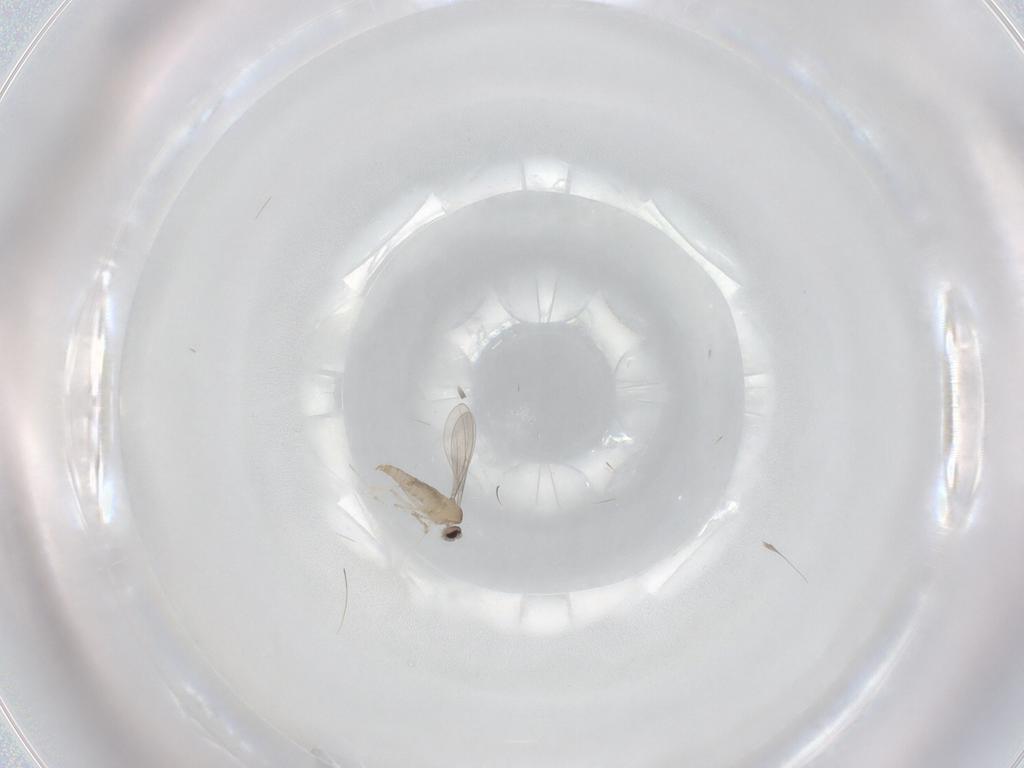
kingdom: Animalia
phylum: Arthropoda
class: Insecta
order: Diptera
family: Cecidomyiidae
